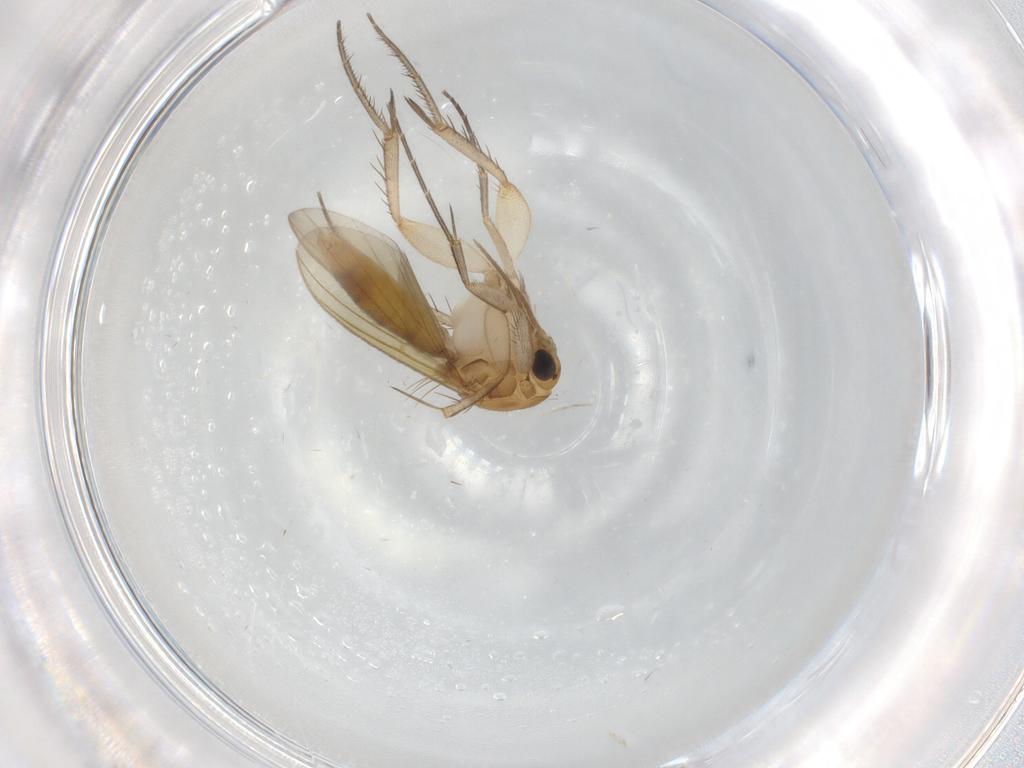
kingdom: Animalia
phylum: Arthropoda
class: Insecta
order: Diptera
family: Mycetophilidae
